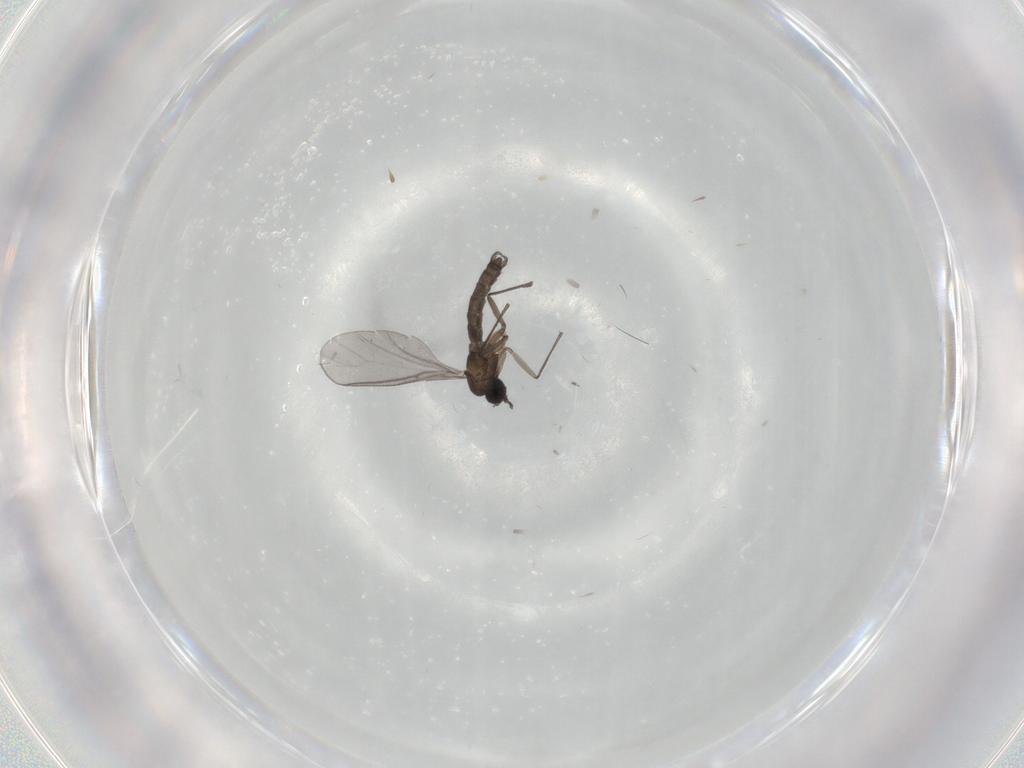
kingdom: Animalia
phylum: Arthropoda
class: Insecta
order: Diptera
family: Sciaridae
